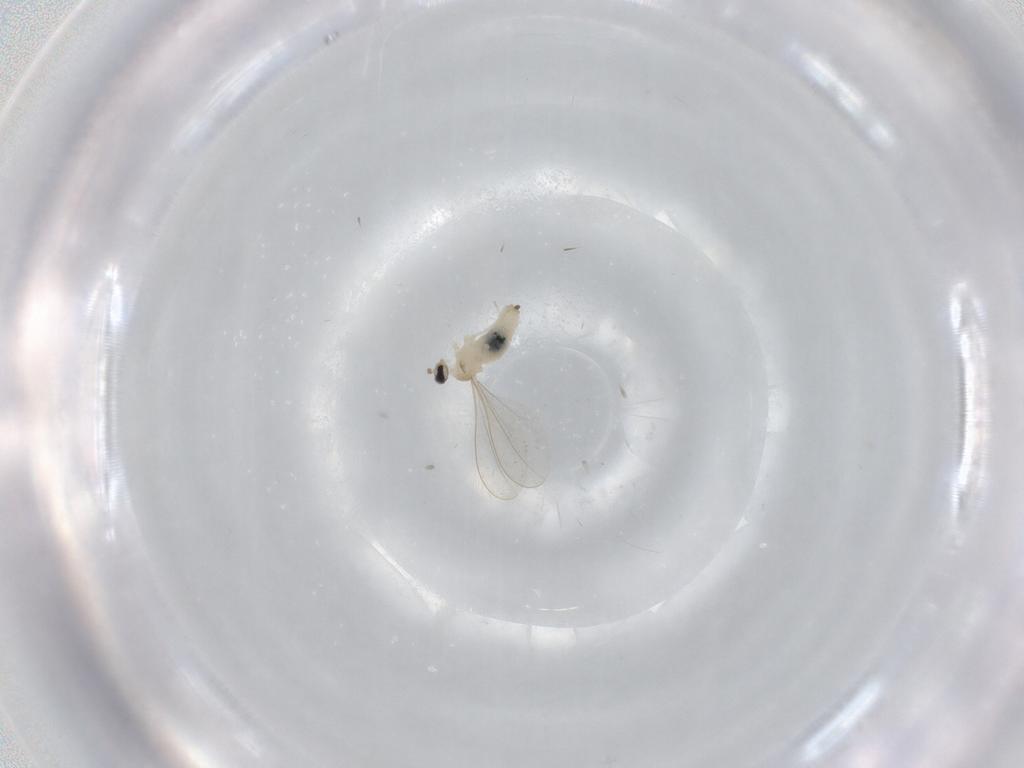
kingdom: Animalia
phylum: Arthropoda
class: Insecta
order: Diptera
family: Cecidomyiidae
